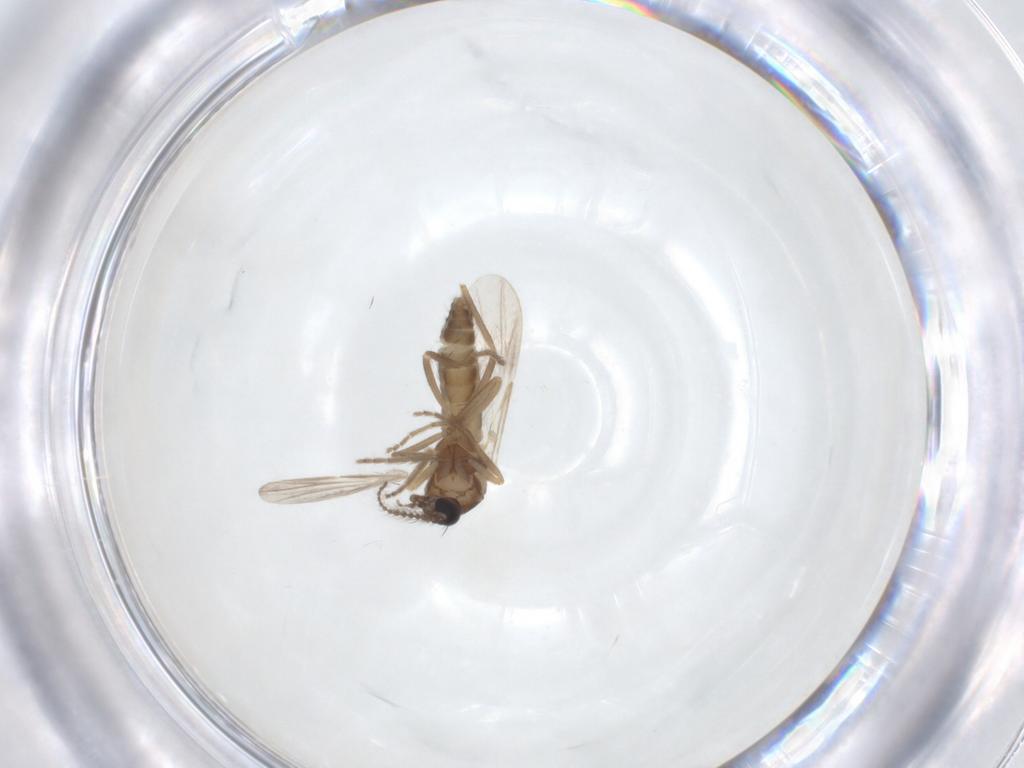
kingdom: Animalia
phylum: Arthropoda
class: Insecta
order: Diptera
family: Ceratopogonidae
